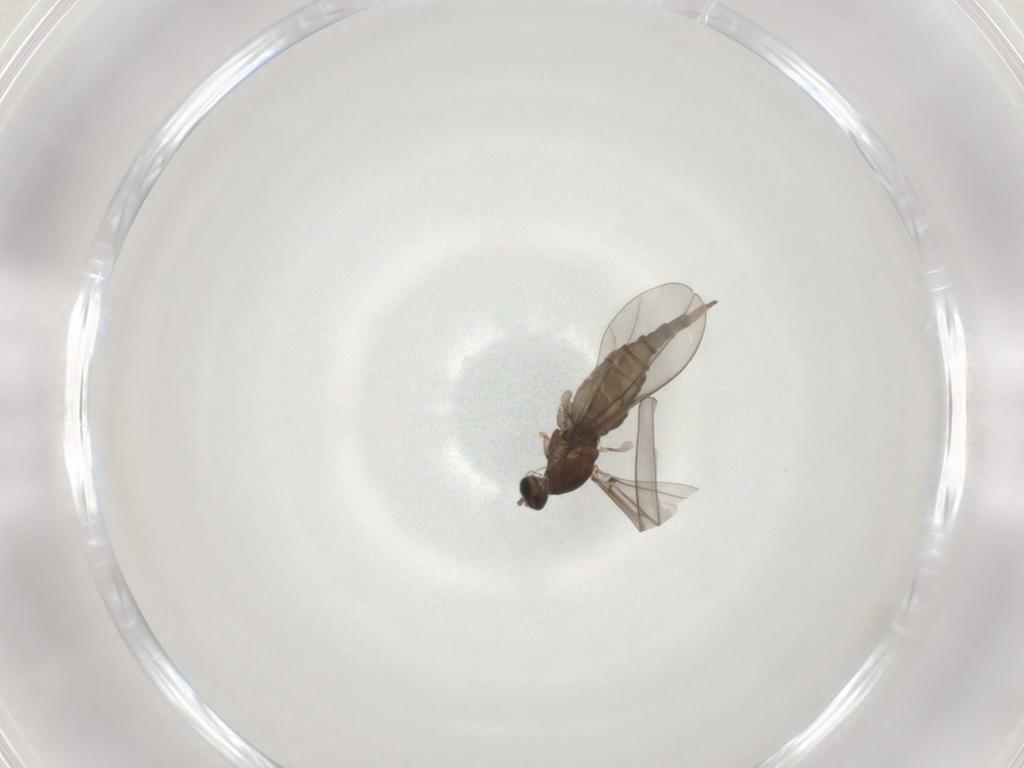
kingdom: Animalia
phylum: Arthropoda
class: Insecta
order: Diptera
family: Cecidomyiidae
